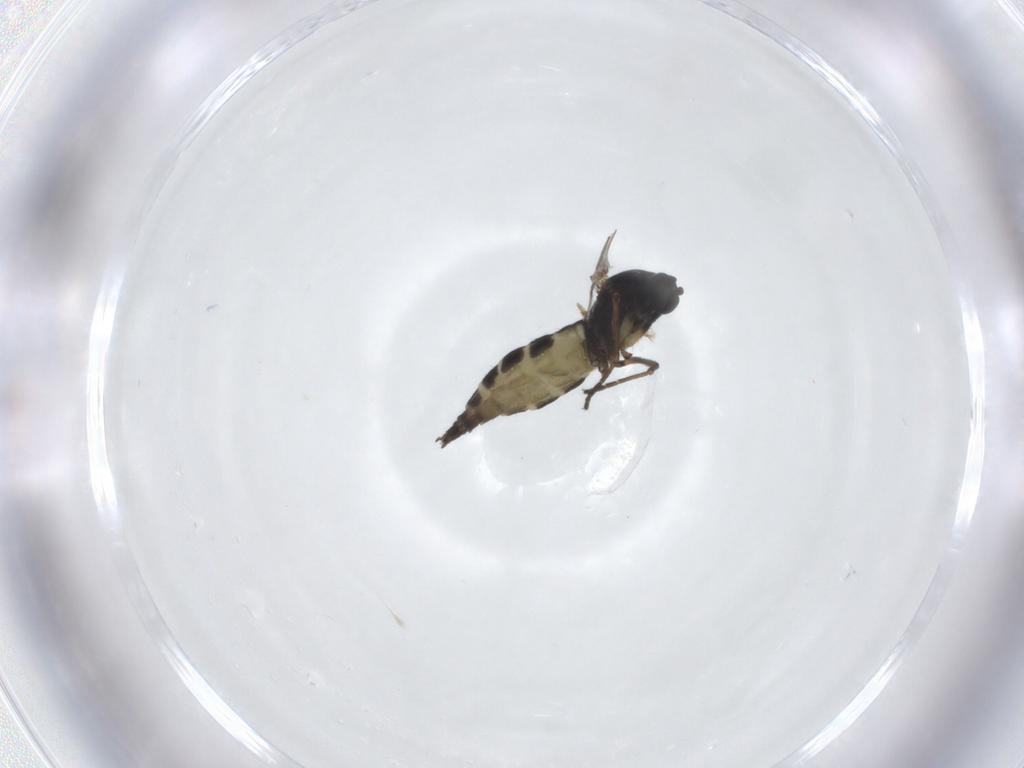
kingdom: Animalia
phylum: Arthropoda
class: Insecta
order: Diptera
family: Sciaridae
